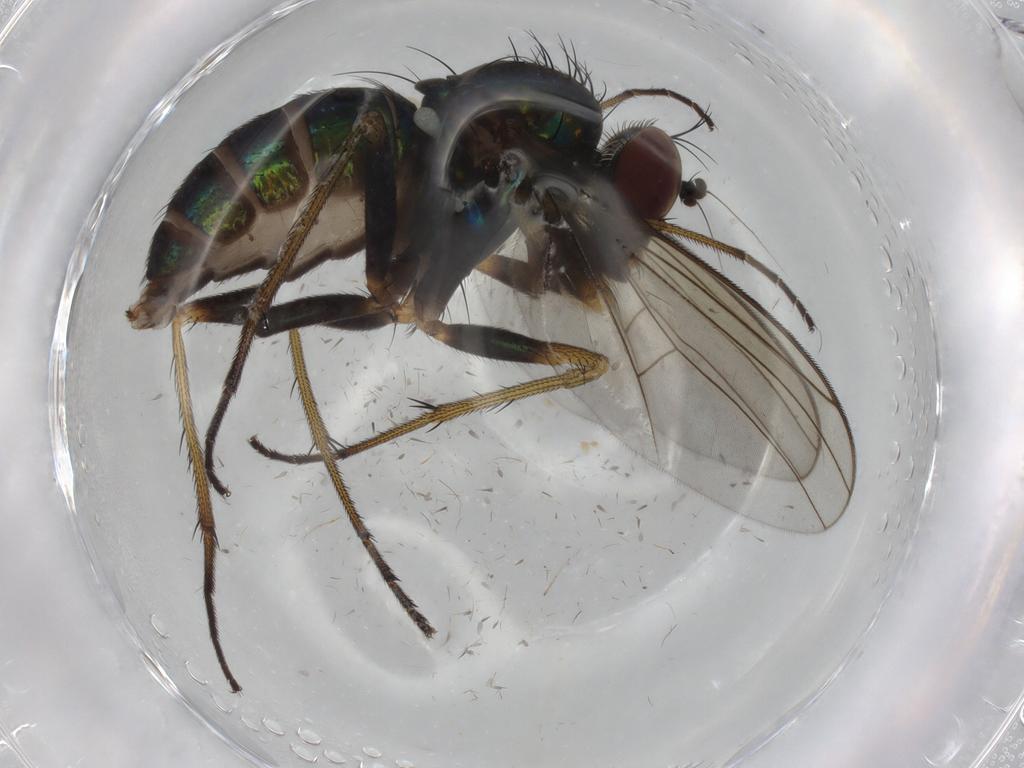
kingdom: Animalia
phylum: Arthropoda
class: Insecta
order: Diptera
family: Dolichopodidae
